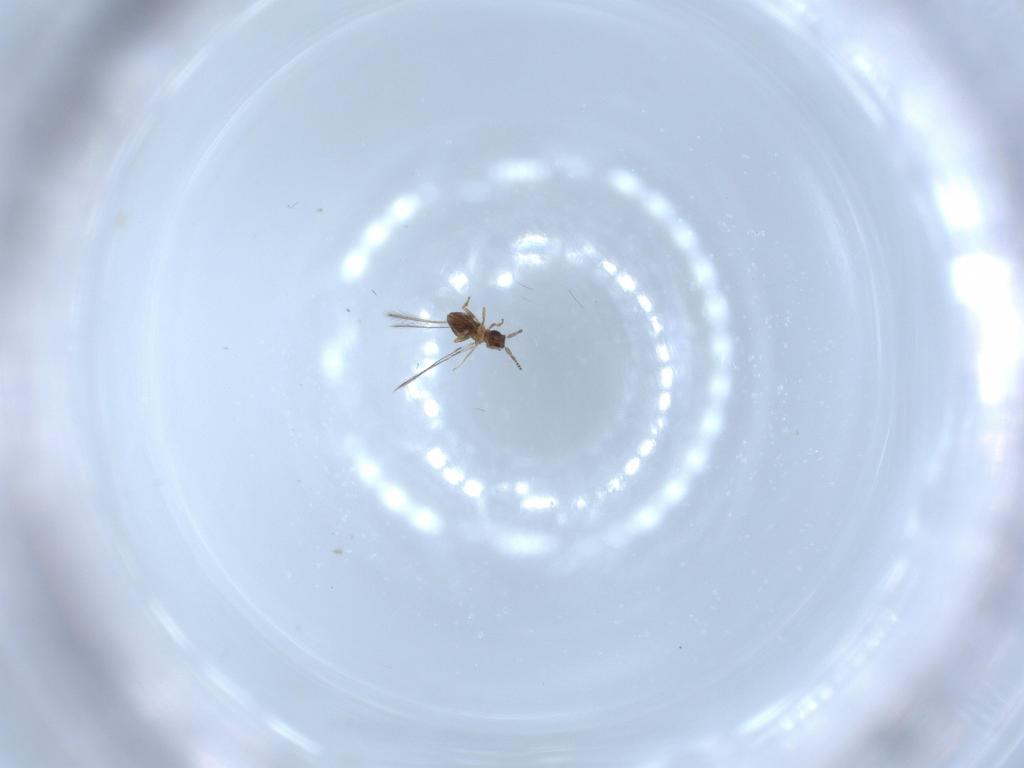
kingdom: Animalia
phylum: Arthropoda
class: Insecta
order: Hymenoptera
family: Mymaridae
